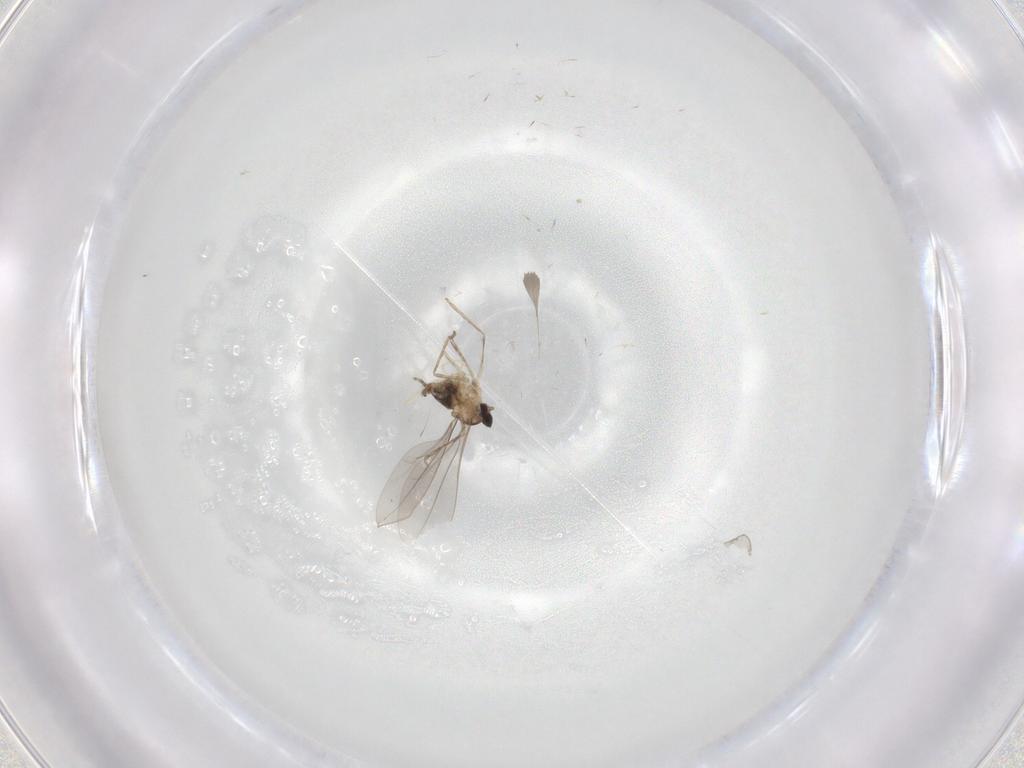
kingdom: Animalia
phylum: Arthropoda
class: Insecta
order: Diptera
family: Cecidomyiidae
